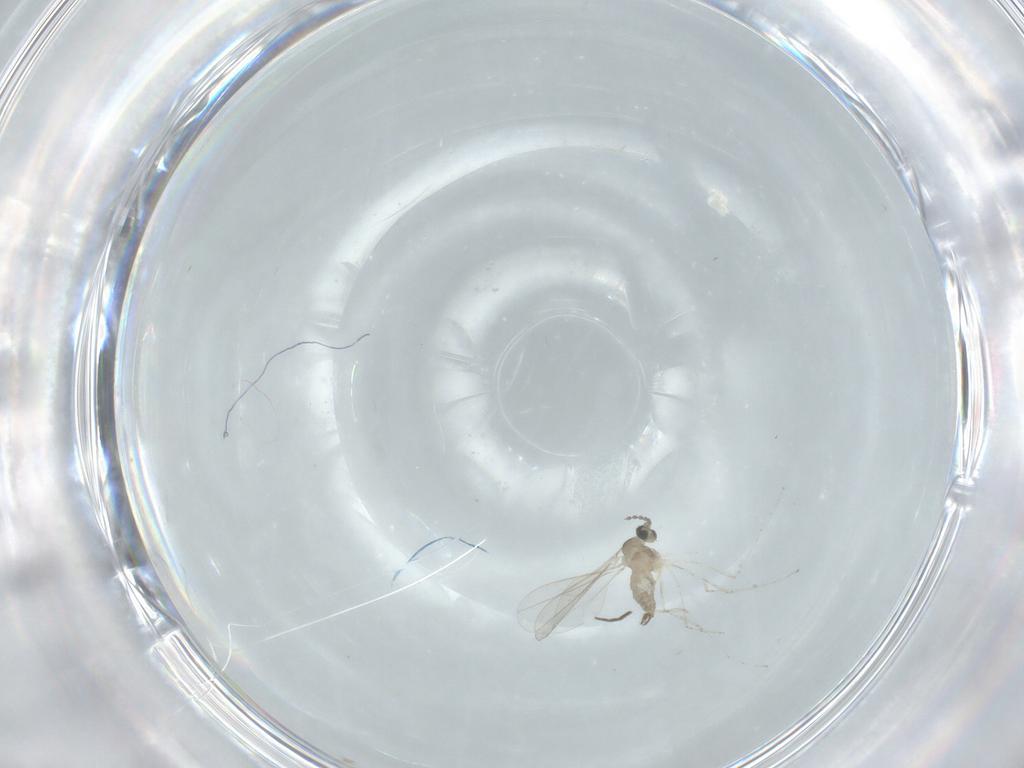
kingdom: Animalia
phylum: Arthropoda
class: Insecta
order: Diptera
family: Cecidomyiidae
